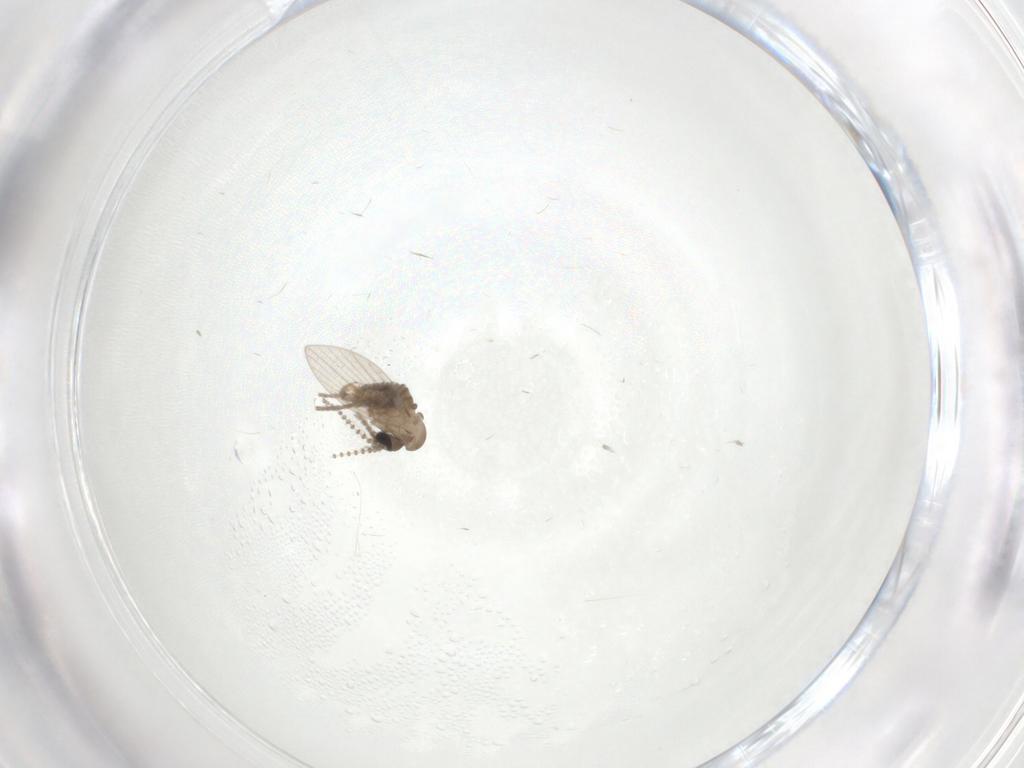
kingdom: Animalia
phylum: Arthropoda
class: Insecta
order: Diptera
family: Psychodidae
